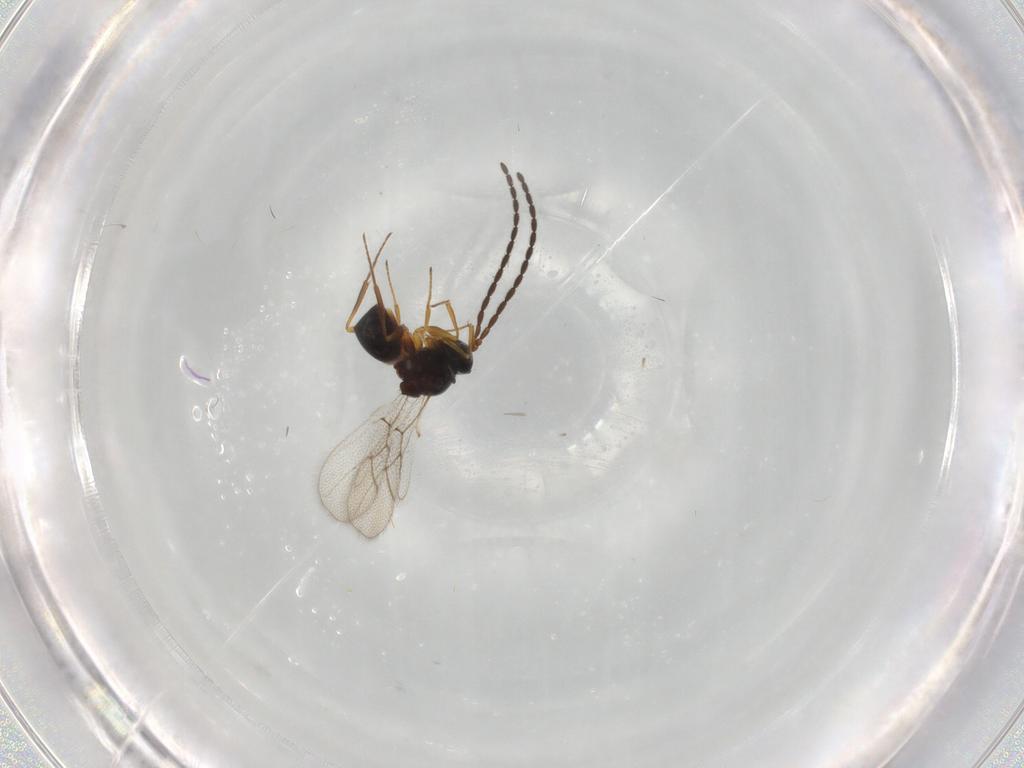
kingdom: Animalia
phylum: Arthropoda
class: Insecta
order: Hymenoptera
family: Figitidae
